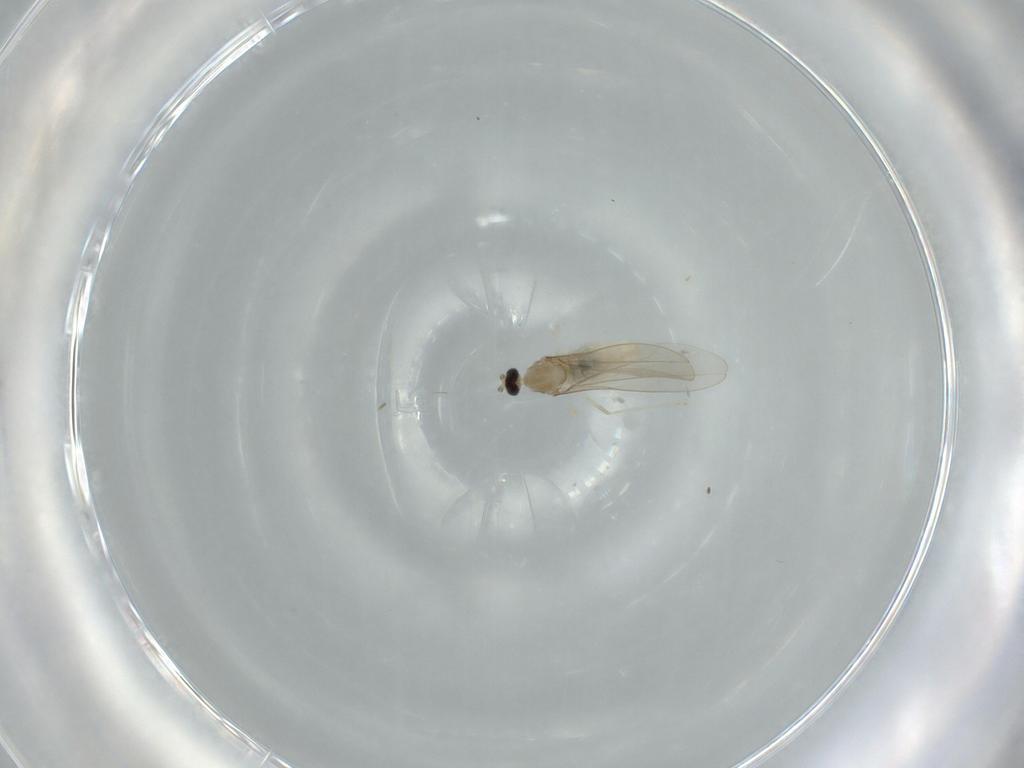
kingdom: Animalia
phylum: Arthropoda
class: Insecta
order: Diptera
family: Cecidomyiidae
